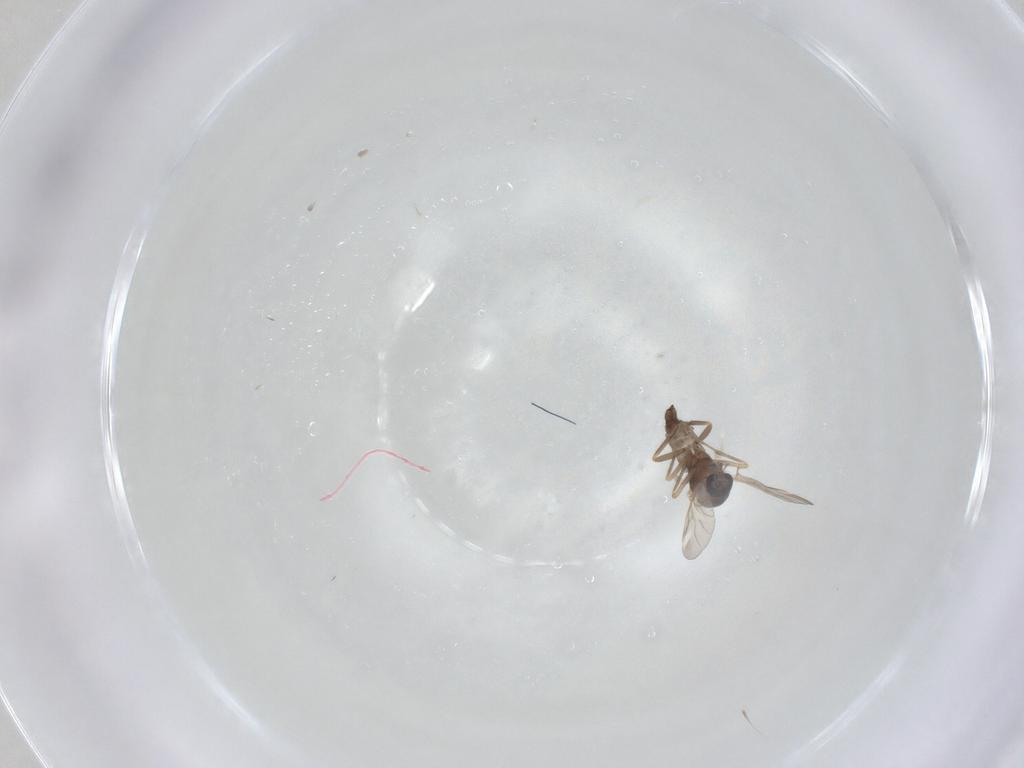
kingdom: Animalia
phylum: Arthropoda
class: Insecta
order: Diptera
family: Ceratopogonidae
